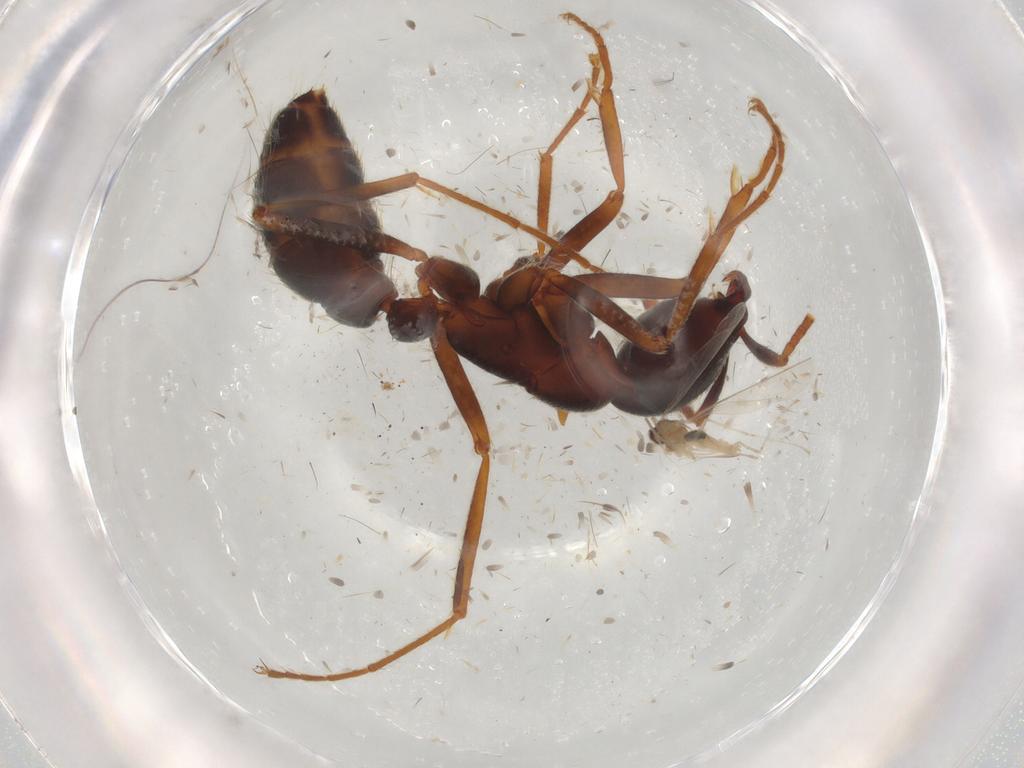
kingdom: Animalia
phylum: Arthropoda
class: Insecta
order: Hymenoptera
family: Formicidae
